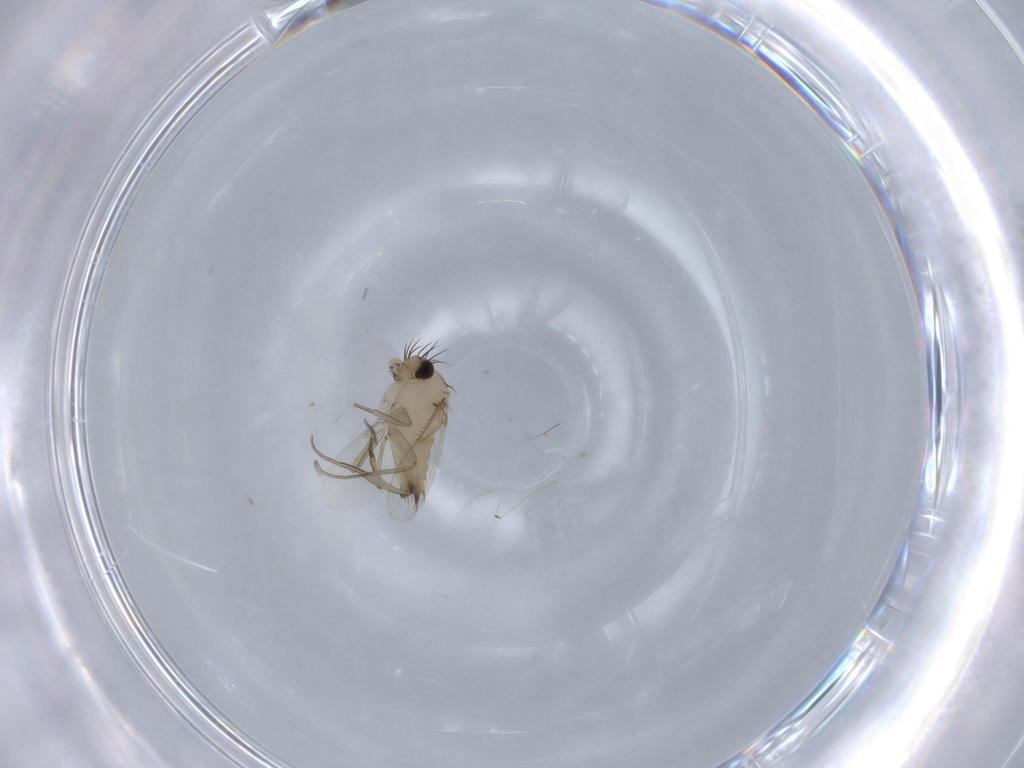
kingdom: Animalia
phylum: Arthropoda
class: Insecta
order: Diptera
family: Phoridae
